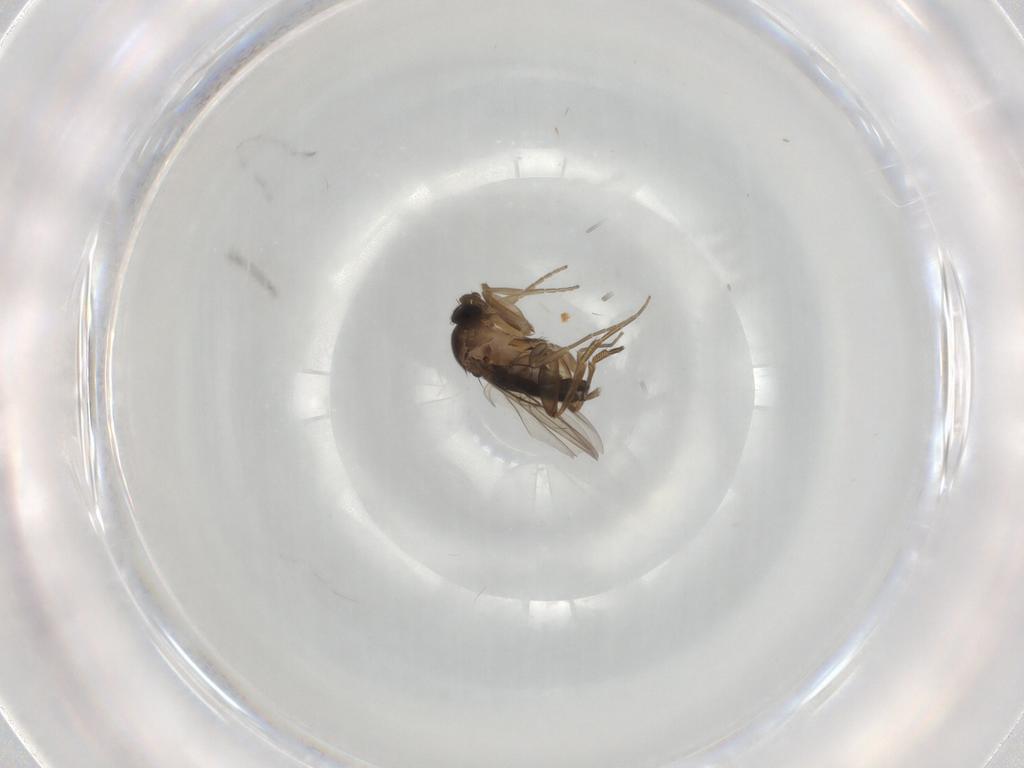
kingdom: Animalia
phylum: Arthropoda
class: Insecta
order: Diptera
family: Phoridae
